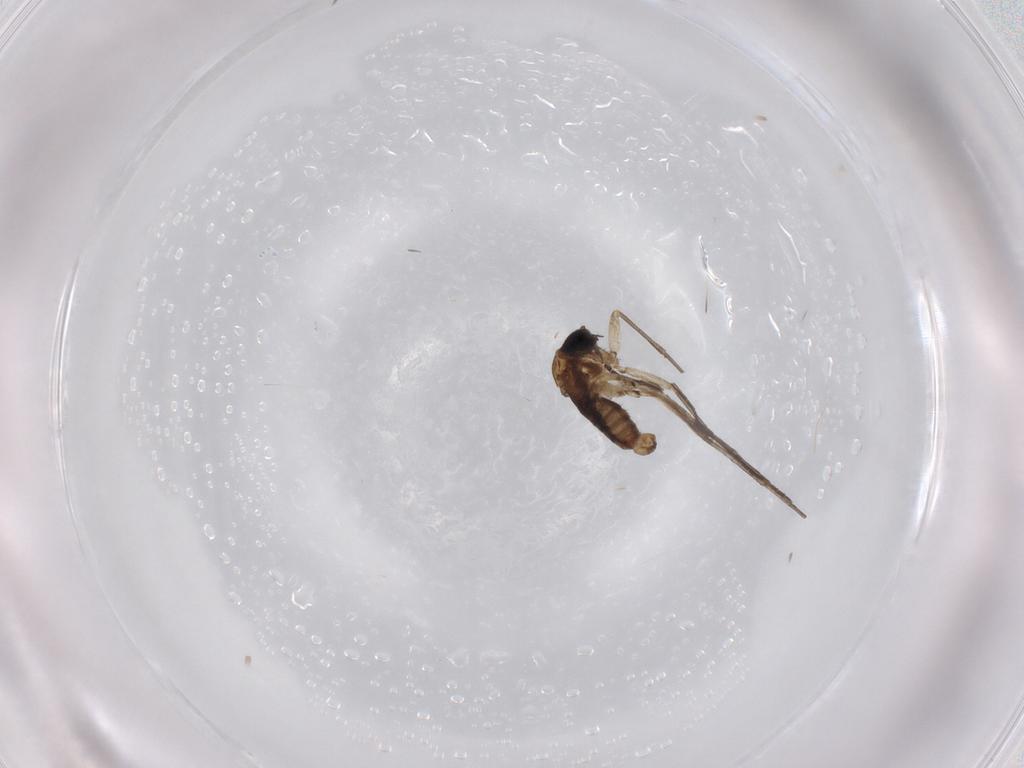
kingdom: Animalia
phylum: Arthropoda
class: Insecta
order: Diptera
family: Sciaridae
